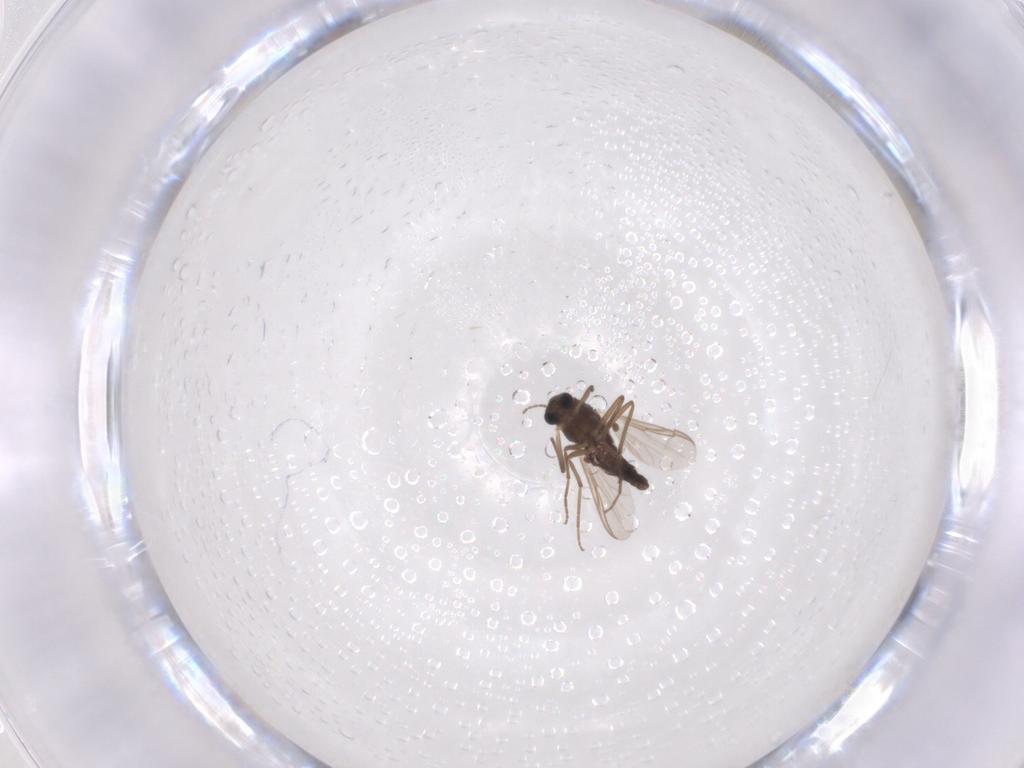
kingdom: Animalia
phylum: Arthropoda
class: Insecta
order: Diptera
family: Chironomidae
